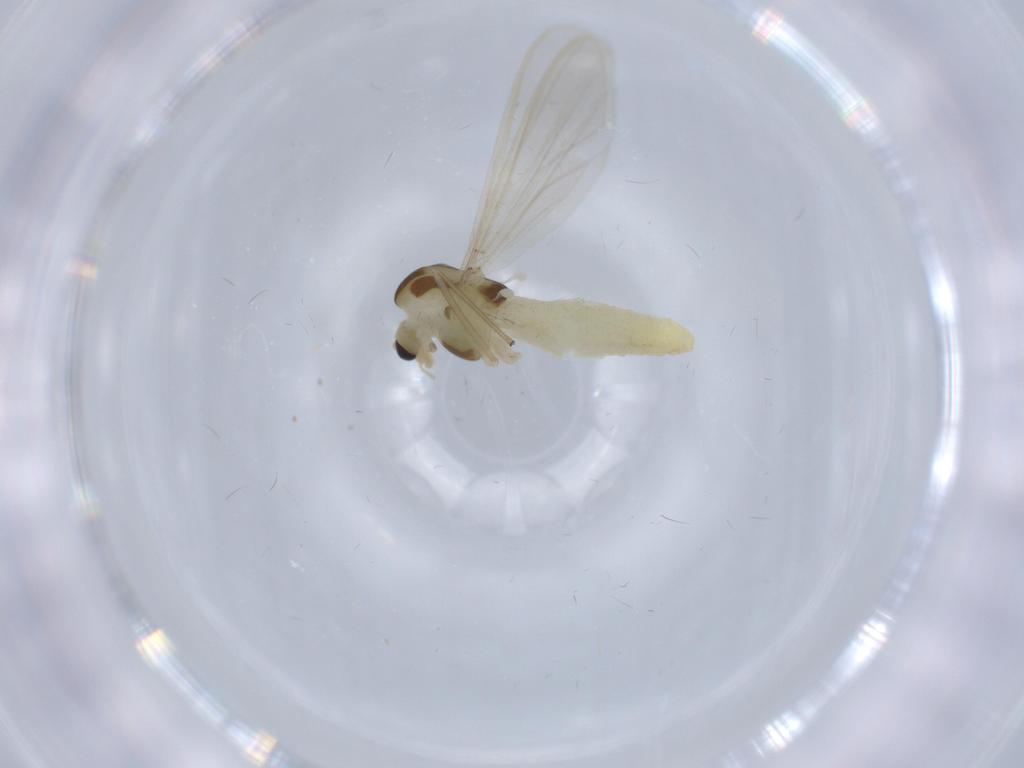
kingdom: Animalia
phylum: Arthropoda
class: Insecta
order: Diptera
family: Chironomidae
